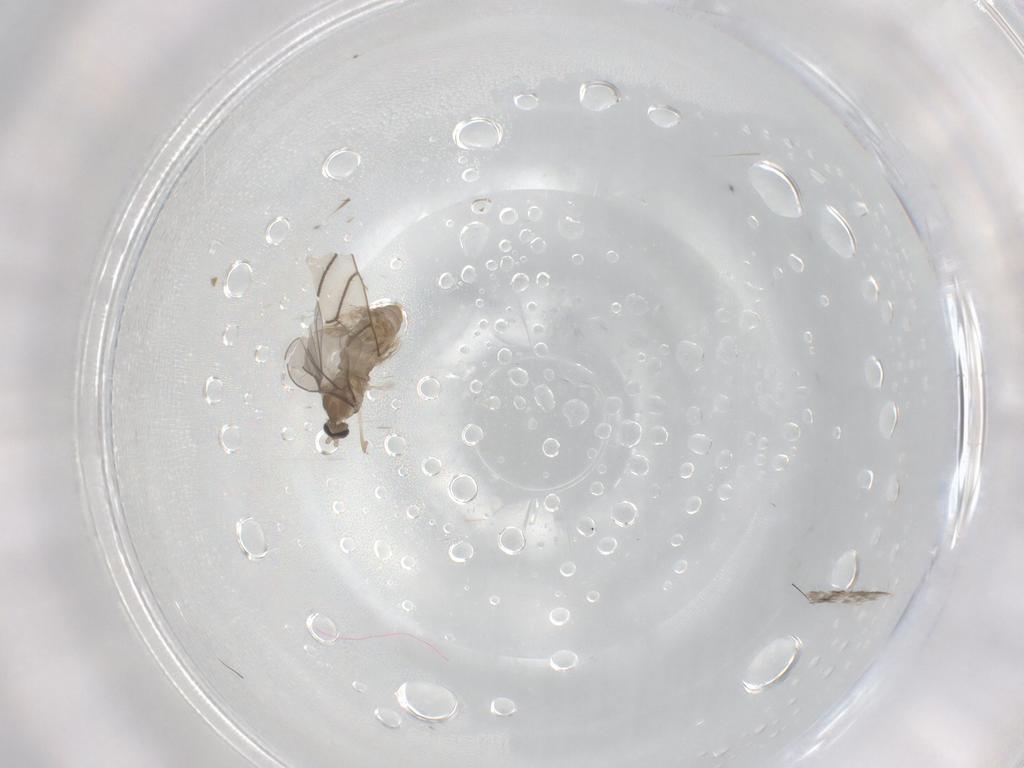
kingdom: Animalia
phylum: Arthropoda
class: Insecta
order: Diptera
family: Cecidomyiidae
